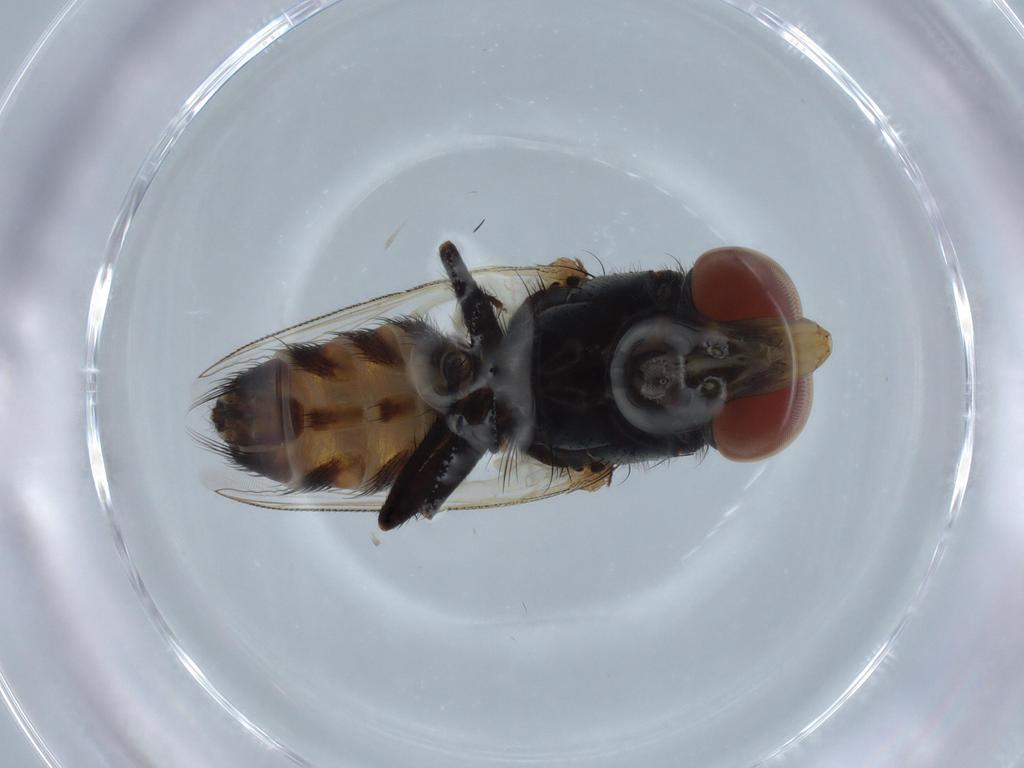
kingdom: Animalia
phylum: Arthropoda
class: Insecta
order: Diptera
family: Sarcophagidae
